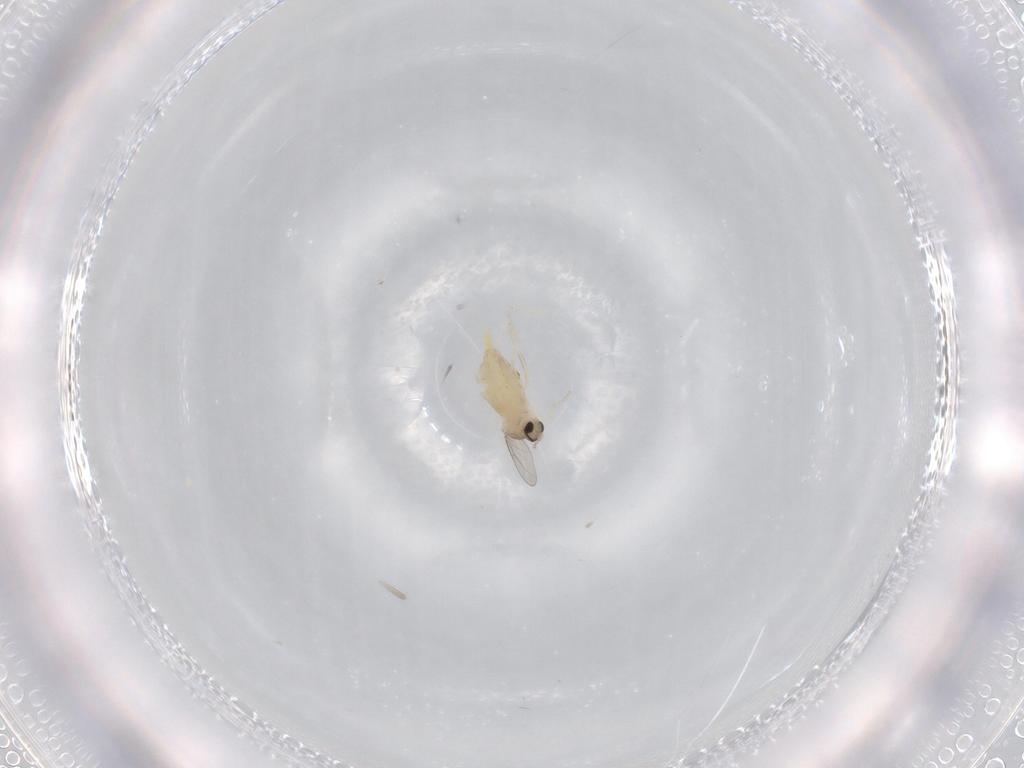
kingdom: Animalia
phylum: Arthropoda
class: Insecta
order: Diptera
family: Cecidomyiidae
